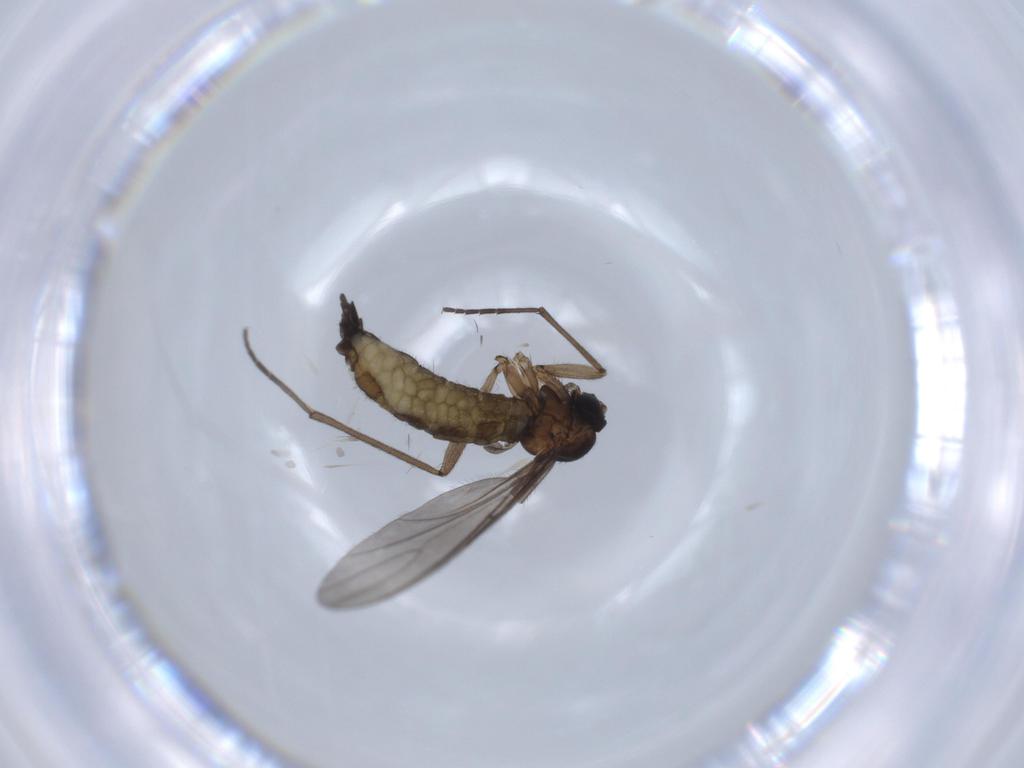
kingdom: Animalia
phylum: Arthropoda
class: Insecta
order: Diptera
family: Sciaridae
